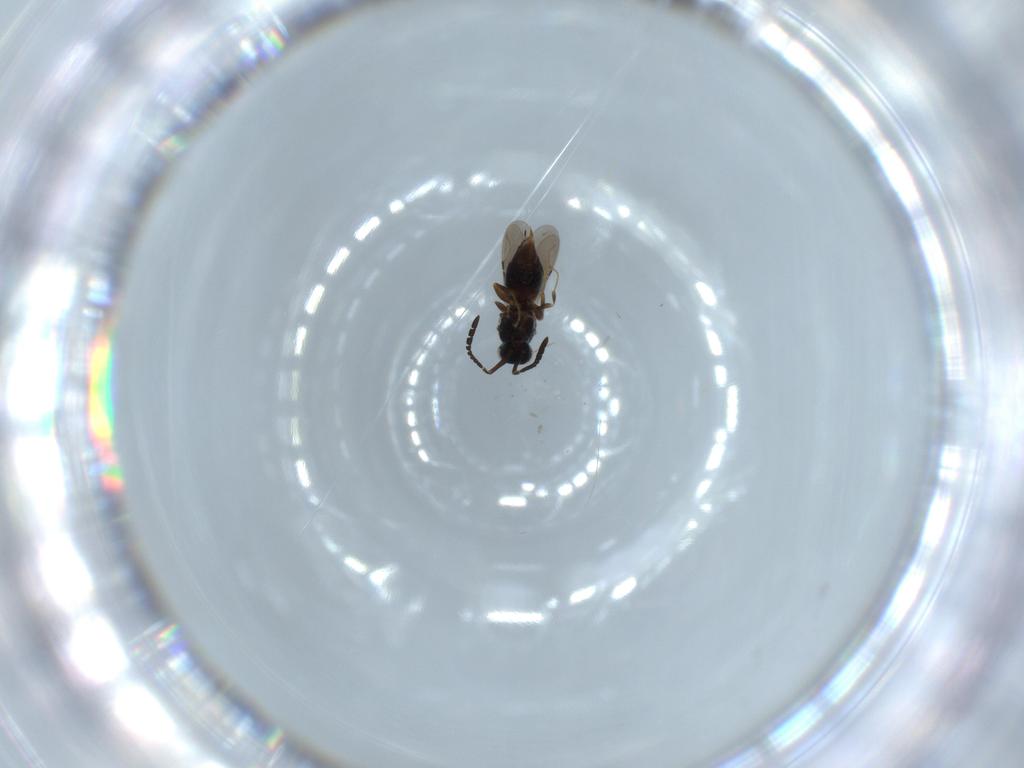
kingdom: Animalia
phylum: Arthropoda
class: Insecta
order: Hymenoptera
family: Ceraphronidae
